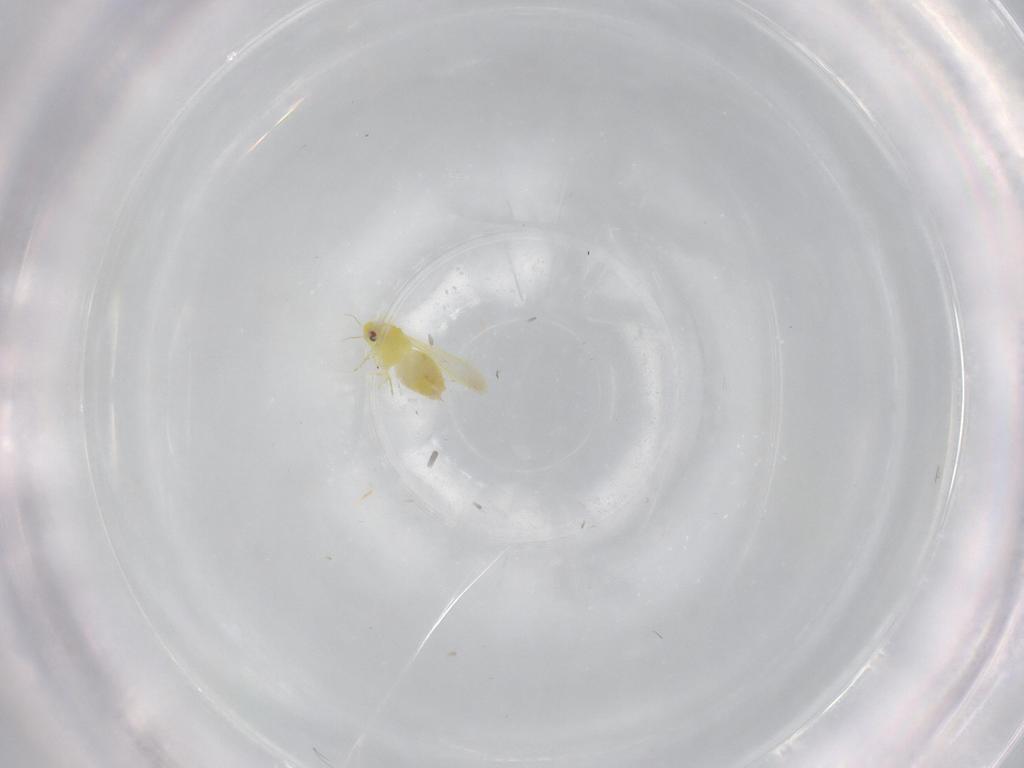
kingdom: Animalia
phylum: Arthropoda
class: Insecta
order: Hemiptera
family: Aleyrodidae
